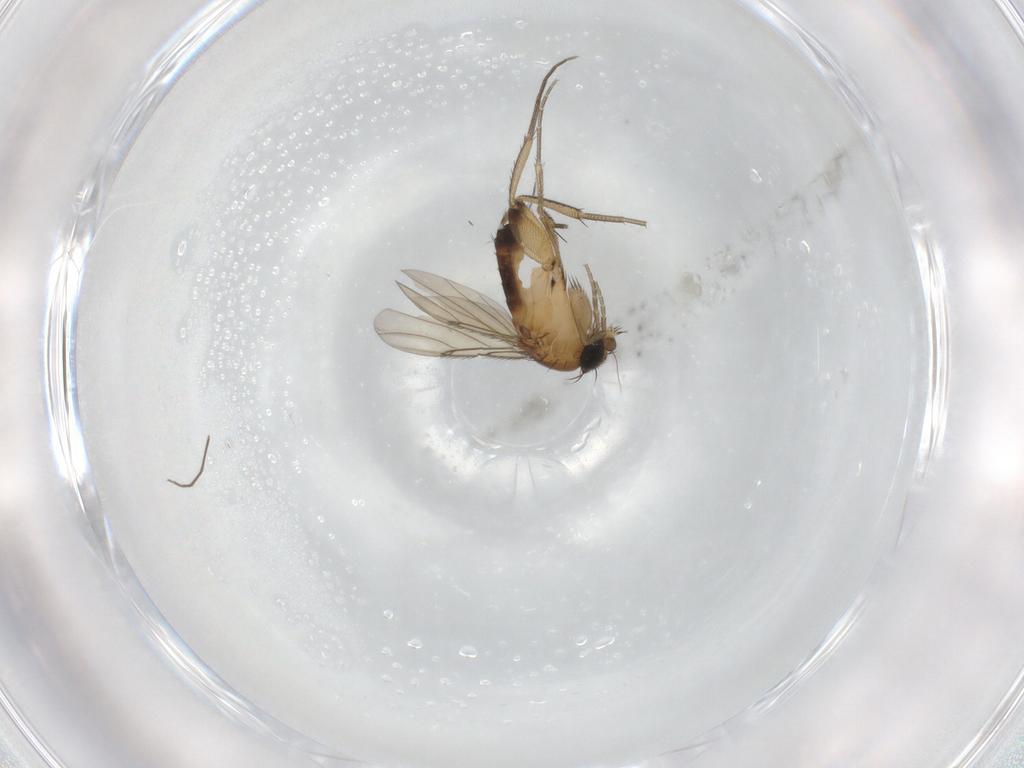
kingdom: Animalia
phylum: Arthropoda
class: Insecta
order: Diptera
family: Phoridae
